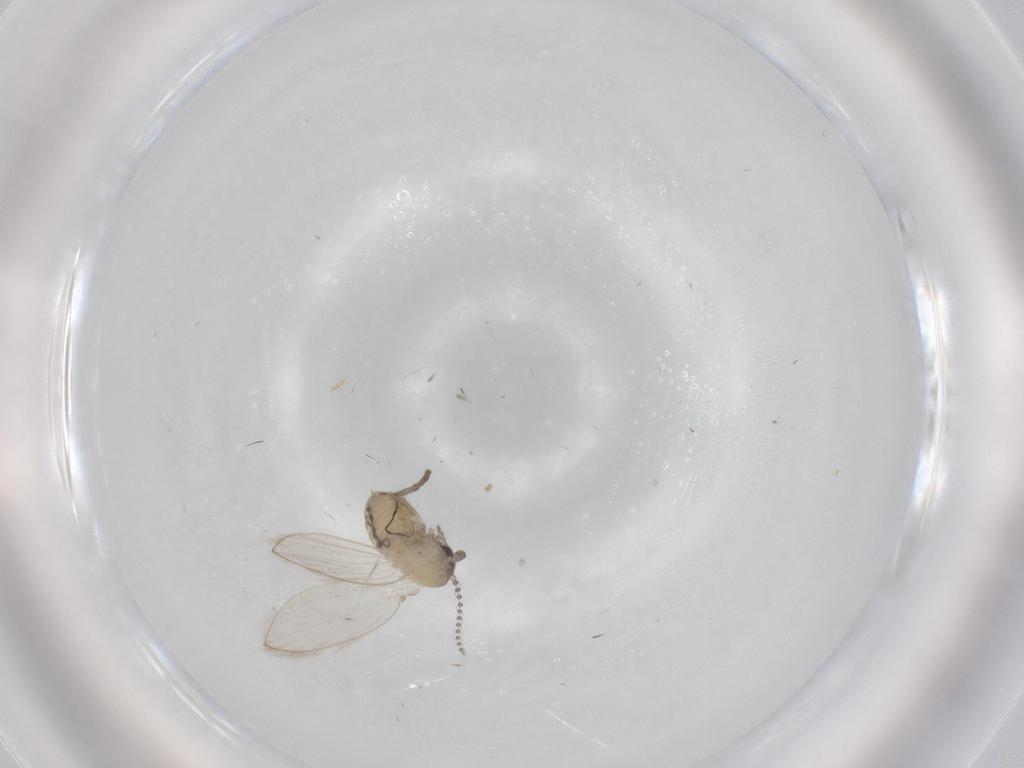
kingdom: Animalia
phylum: Arthropoda
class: Insecta
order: Diptera
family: Psychodidae
